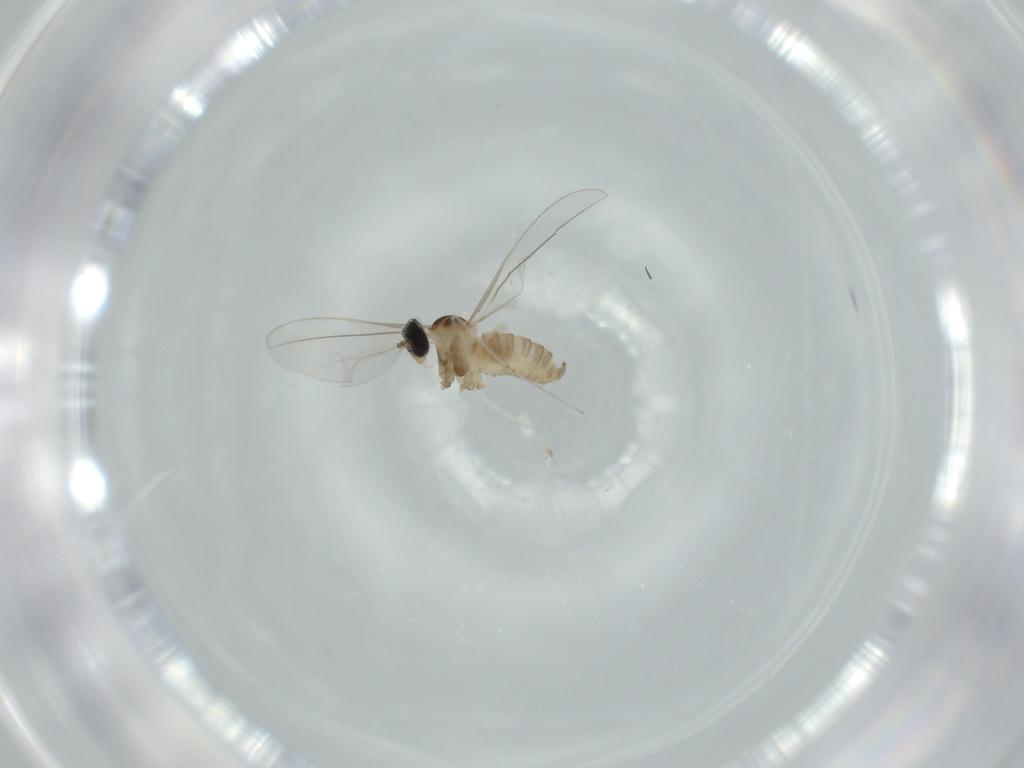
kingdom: Animalia
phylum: Arthropoda
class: Insecta
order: Diptera
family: Cecidomyiidae
